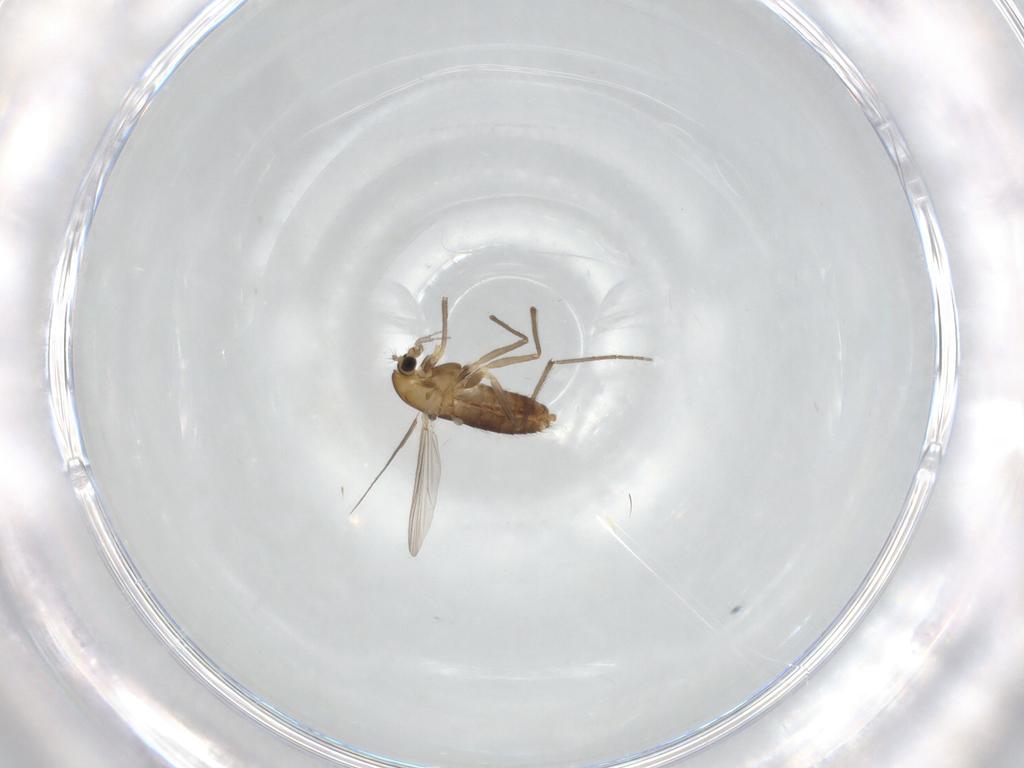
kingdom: Animalia
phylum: Arthropoda
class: Insecta
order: Diptera
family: Chironomidae
